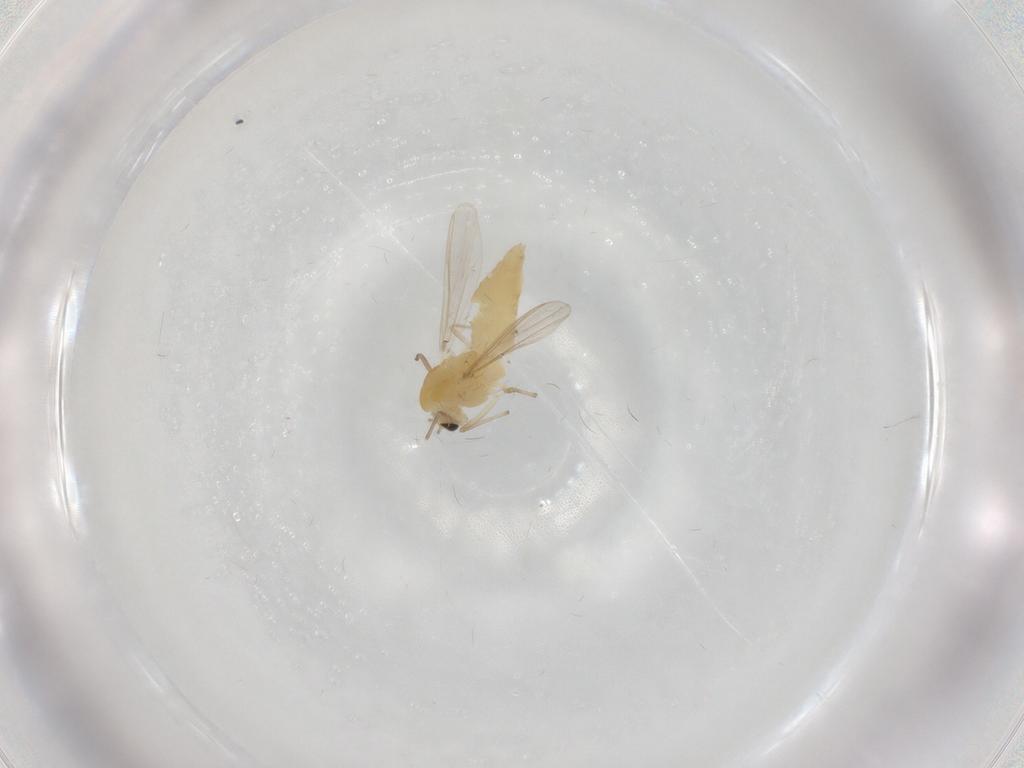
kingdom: Animalia
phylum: Arthropoda
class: Insecta
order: Diptera
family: Chironomidae
